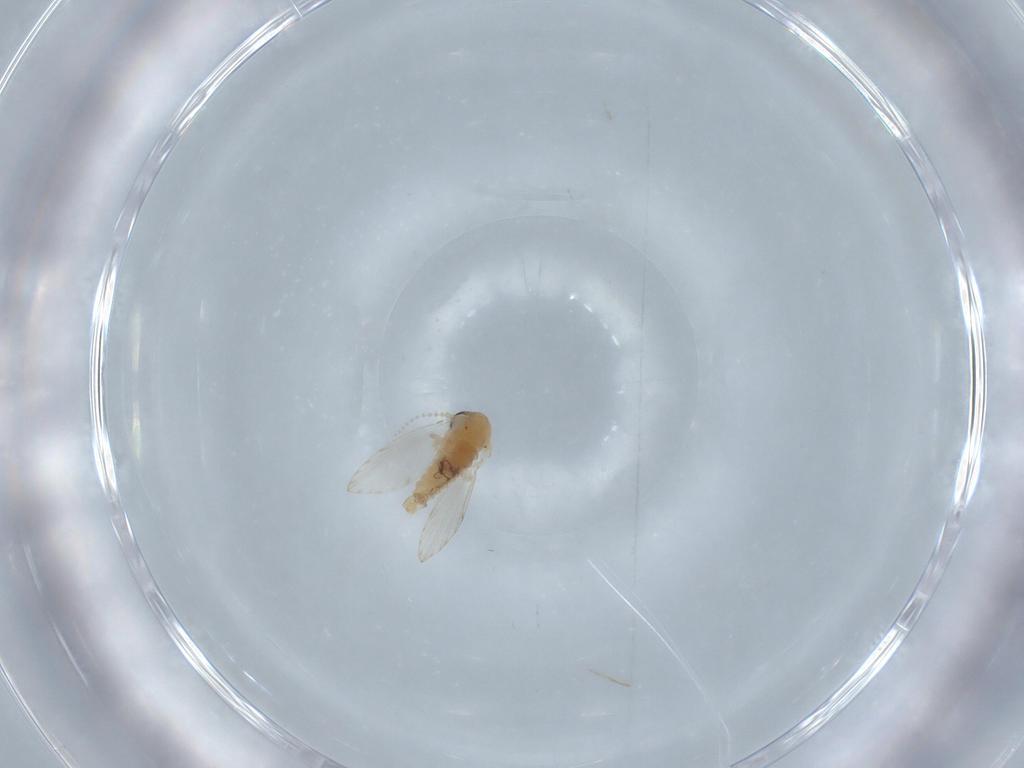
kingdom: Animalia
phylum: Arthropoda
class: Insecta
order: Diptera
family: Psychodidae
